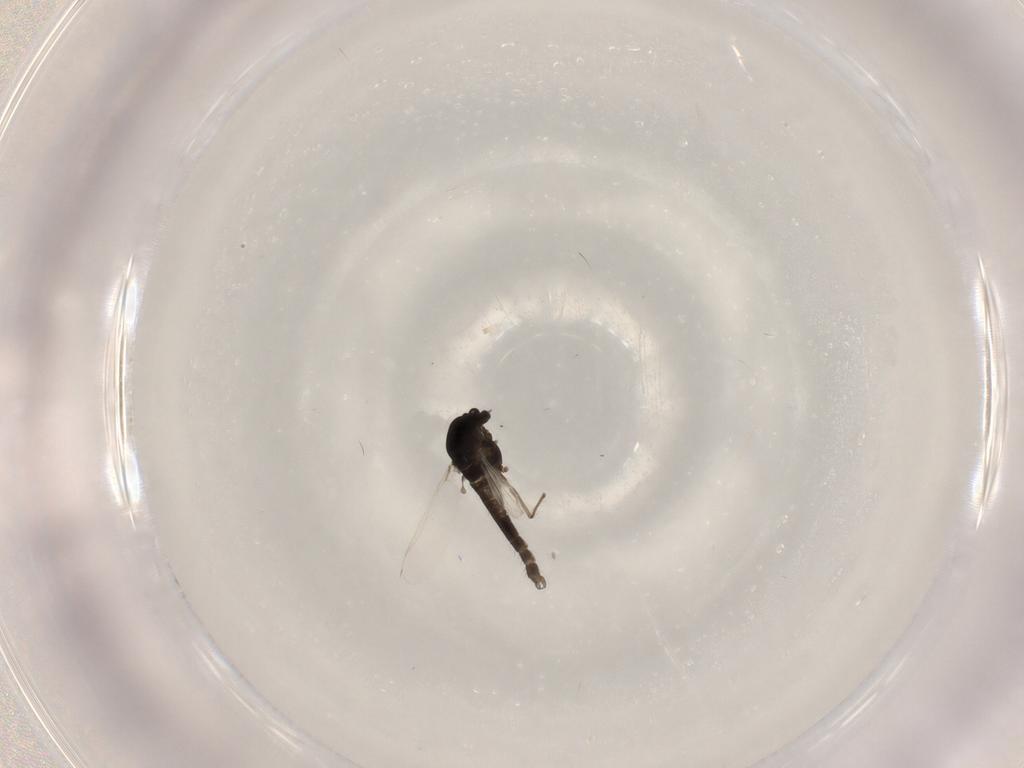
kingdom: Animalia
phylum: Arthropoda
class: Insecta
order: Diptera
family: Chironomidae
